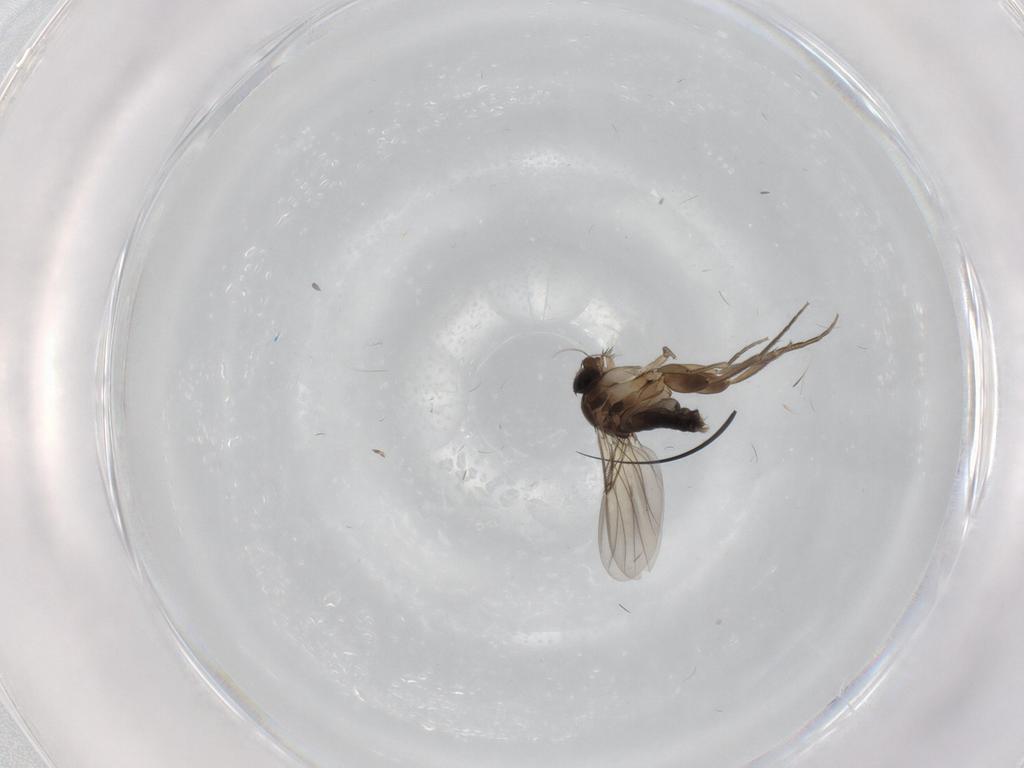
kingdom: Animalia
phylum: Arthropoda
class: Insecta
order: Diptera
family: Phoridae
